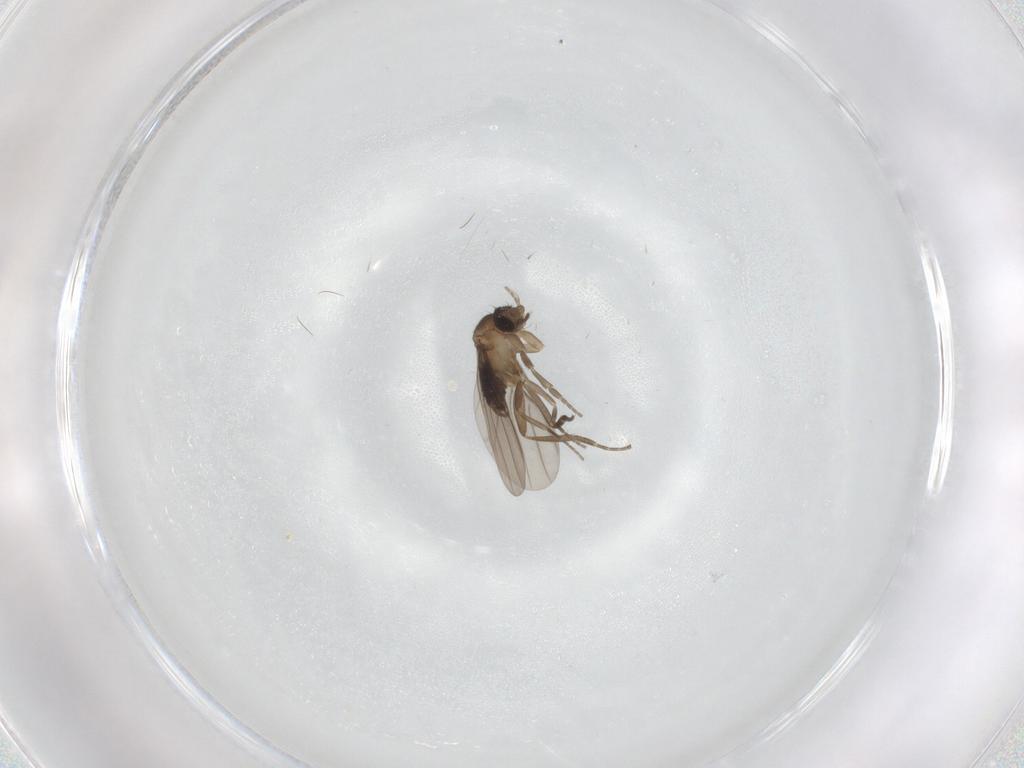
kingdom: Animalia
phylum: Arthropoda
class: Insecta
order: Diptera
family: Phoridae
